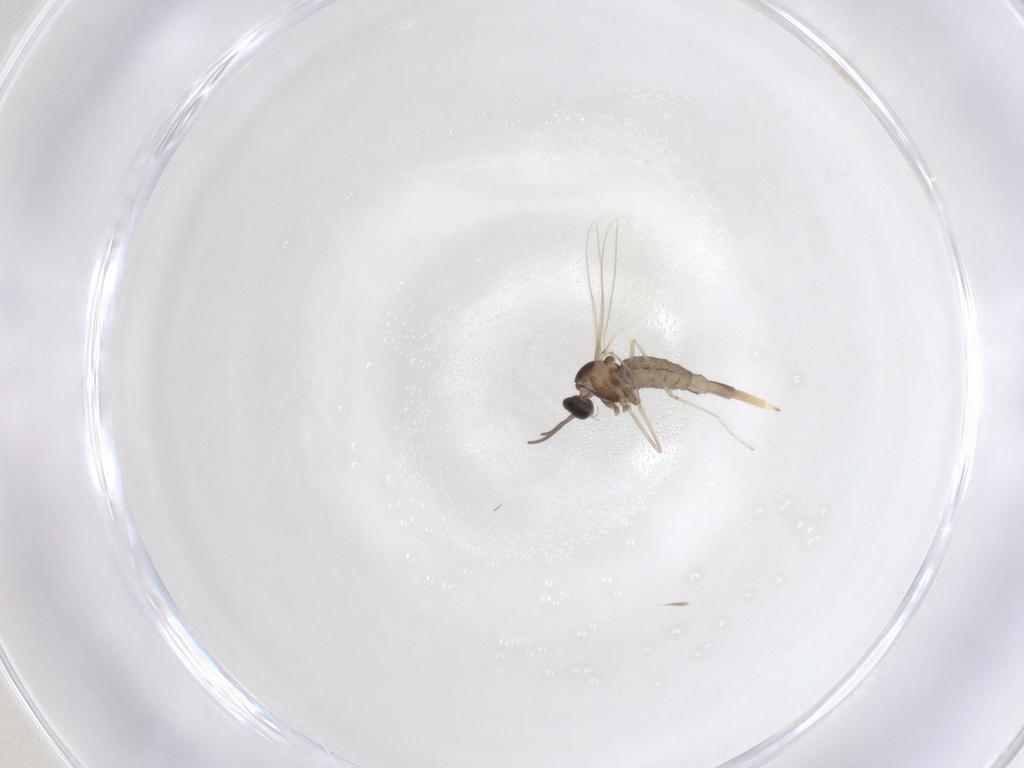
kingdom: Animalia
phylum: Arthropoda
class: Insecta
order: Diptera
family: Cecidomyiidae
